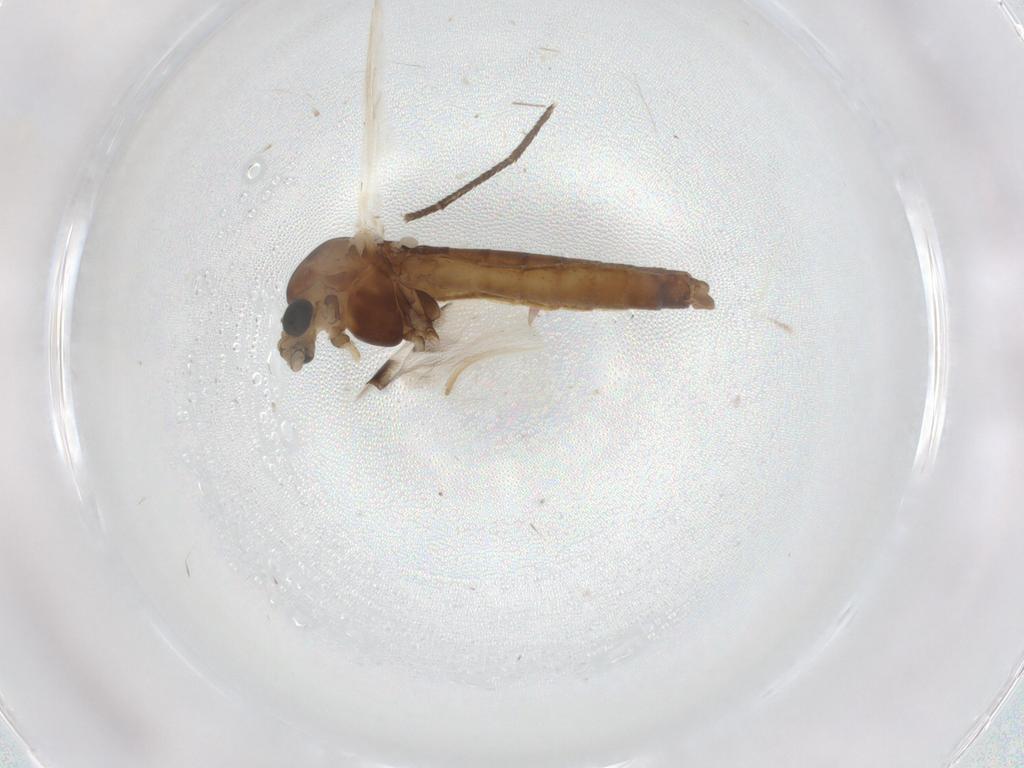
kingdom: Animalia
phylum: Arthropoda
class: Insecta
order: Diptera
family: Chironomidae
